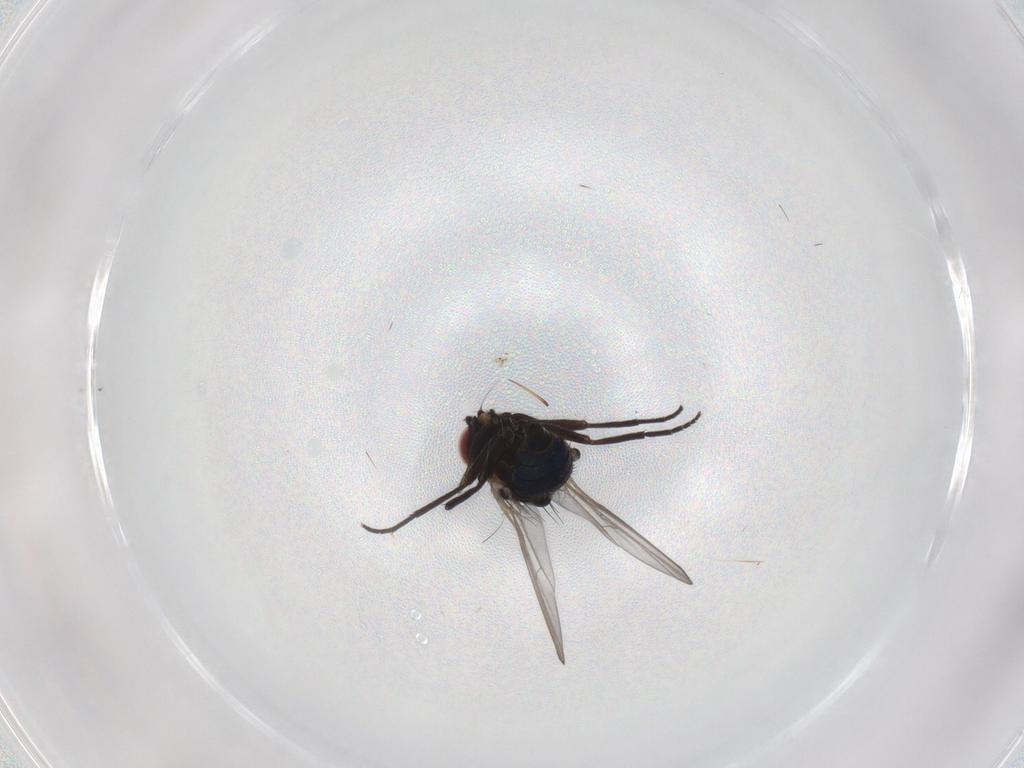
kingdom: Animalia
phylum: Arthropoda
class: Insecta
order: Diptera
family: Agromyzidae
